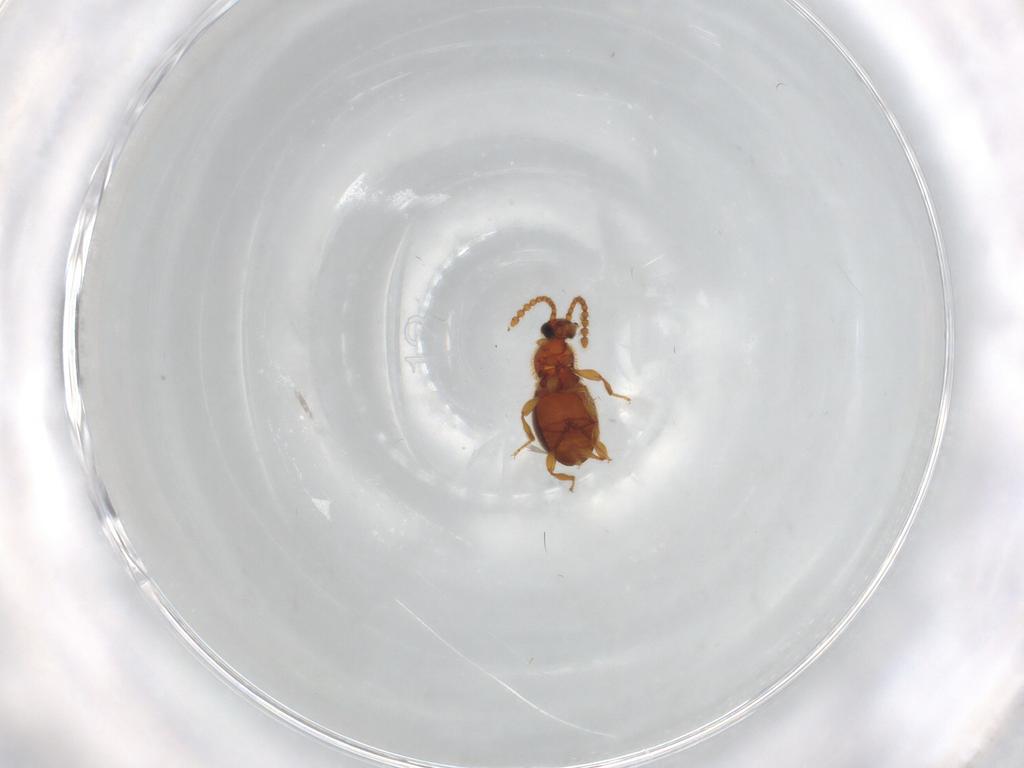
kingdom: Animalia
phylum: Arthropoda
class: Insecta
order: Coleoptera
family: Staphylinidae
